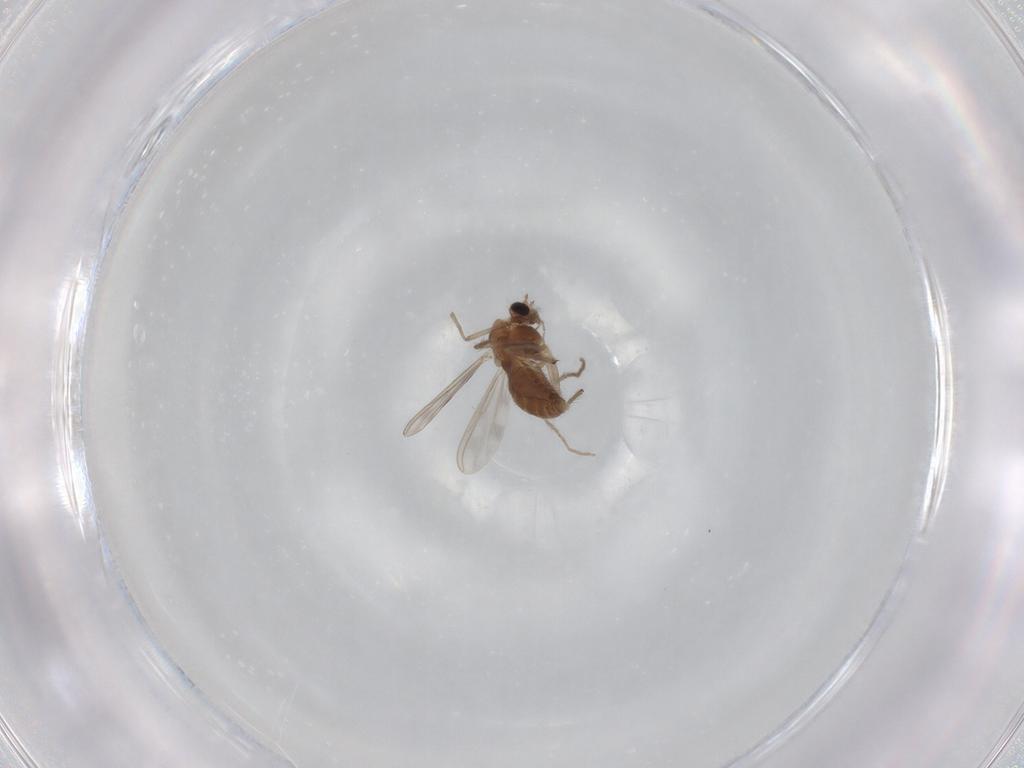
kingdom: Animalia
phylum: Arthropoda
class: Insecta
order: Diptera
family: Chironomidae
